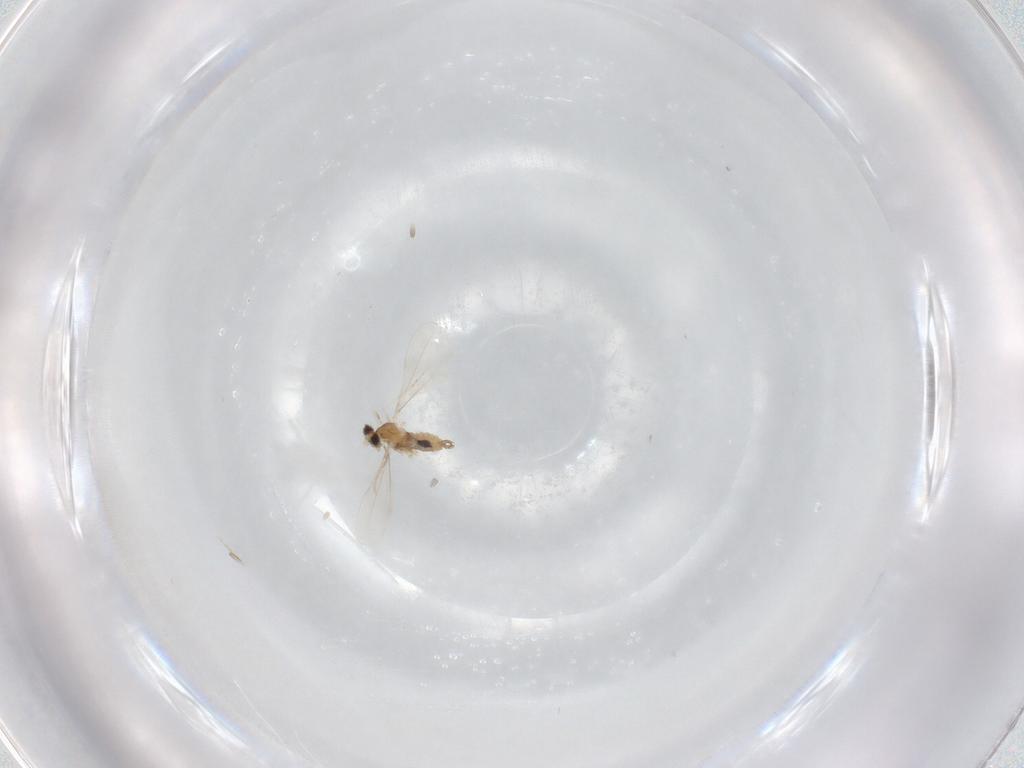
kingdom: Animalia
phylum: Arthropoda
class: Insecta
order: Diptera
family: Cecidomyiidae
